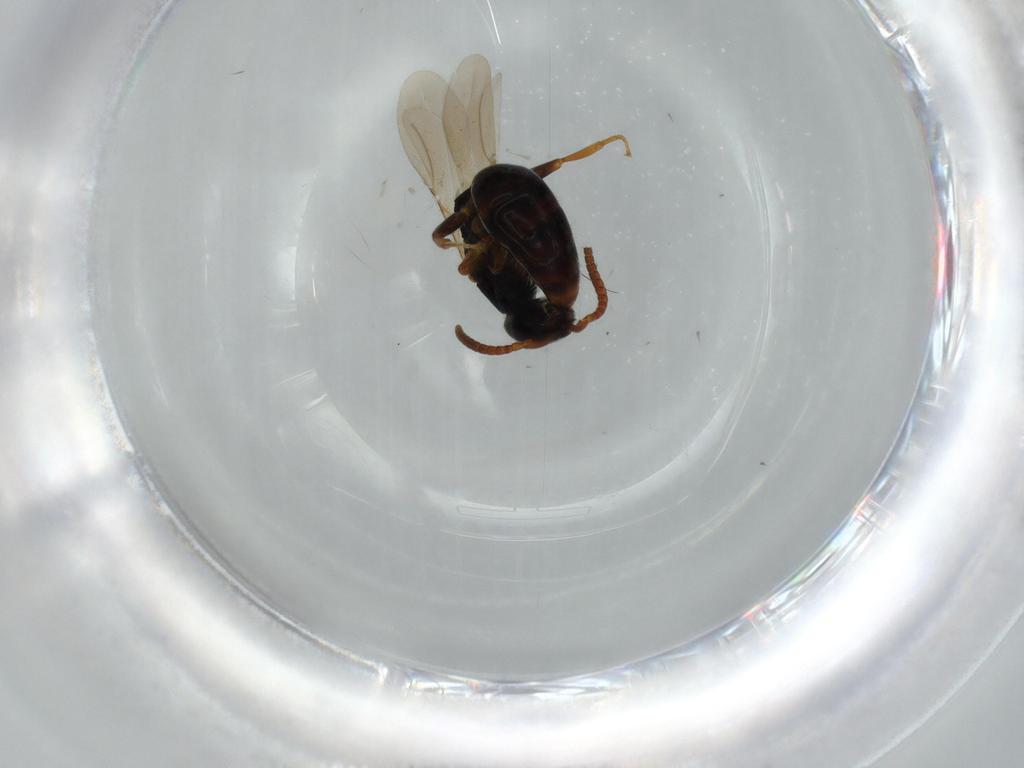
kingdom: Animalia
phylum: Arthropoda
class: Insecta
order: Hymenoptera
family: Bethylidae
